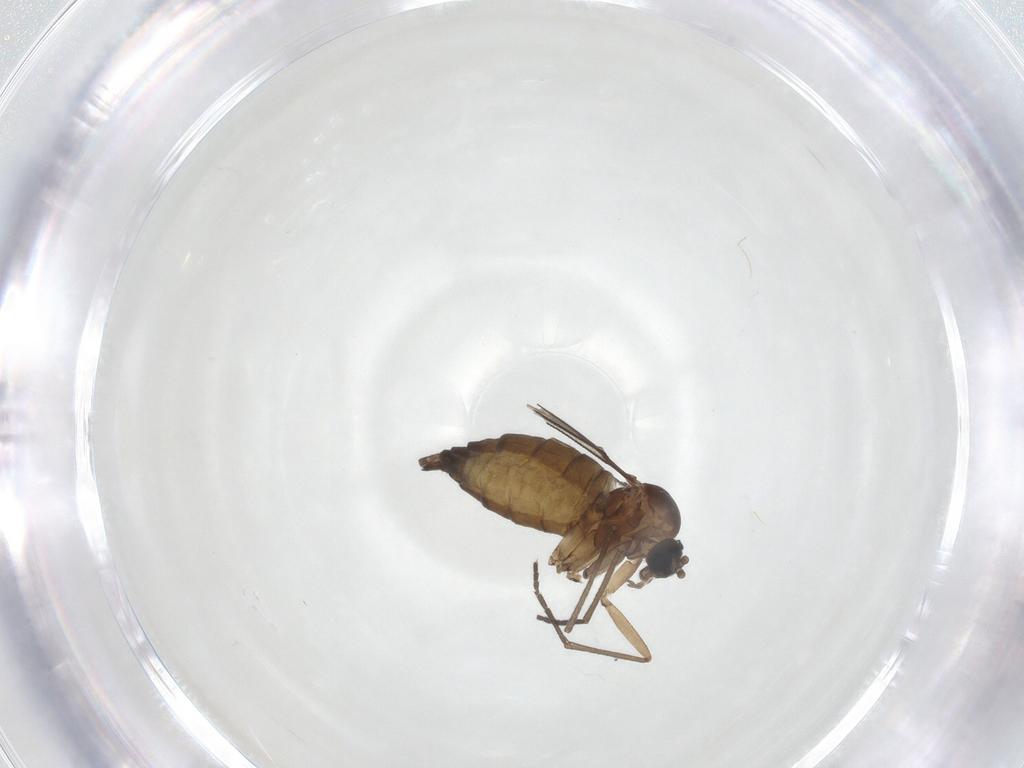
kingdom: Animalia
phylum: Arthropoda
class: Insecta
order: Diptera
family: Sciaridae
